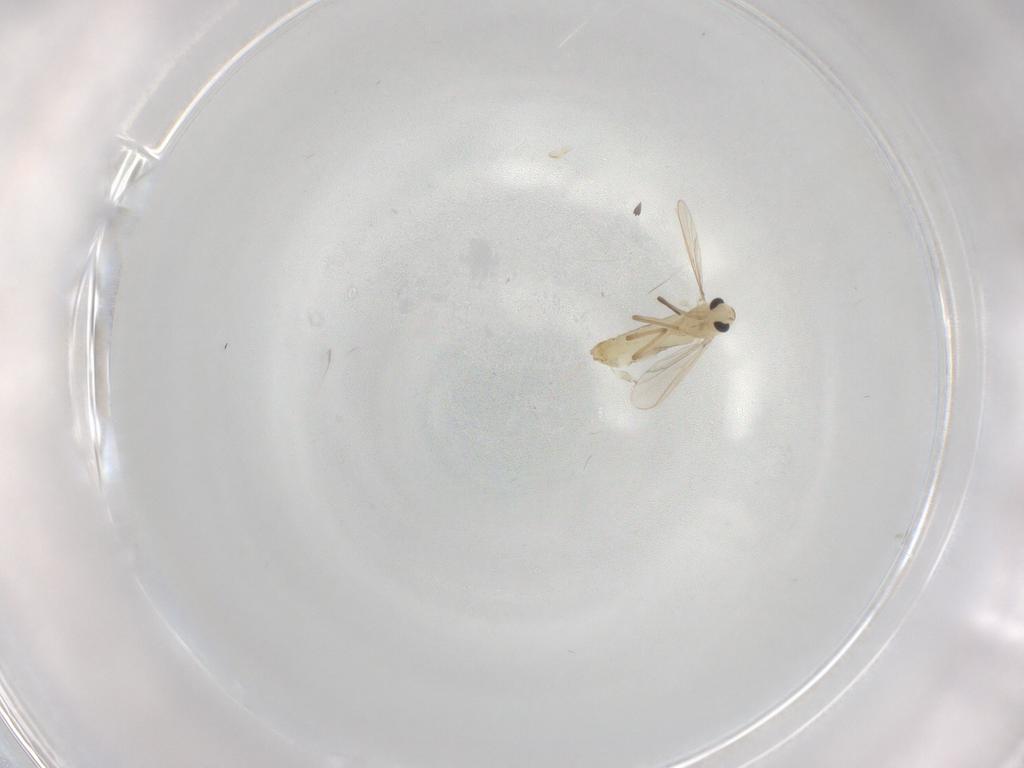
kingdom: Animalia
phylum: Arthropoda
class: Insecta
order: Diptera
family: Chironomidae
